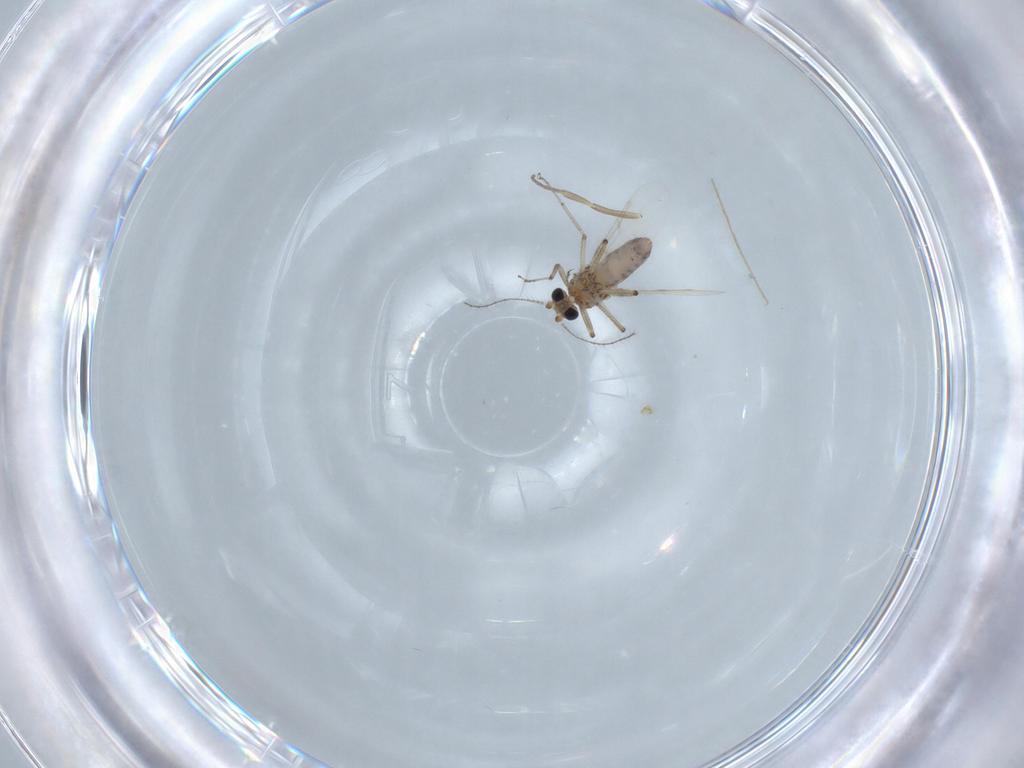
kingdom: Animalia
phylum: Arthropoda
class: Insecta
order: Diptera
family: Ceratopogonidae
